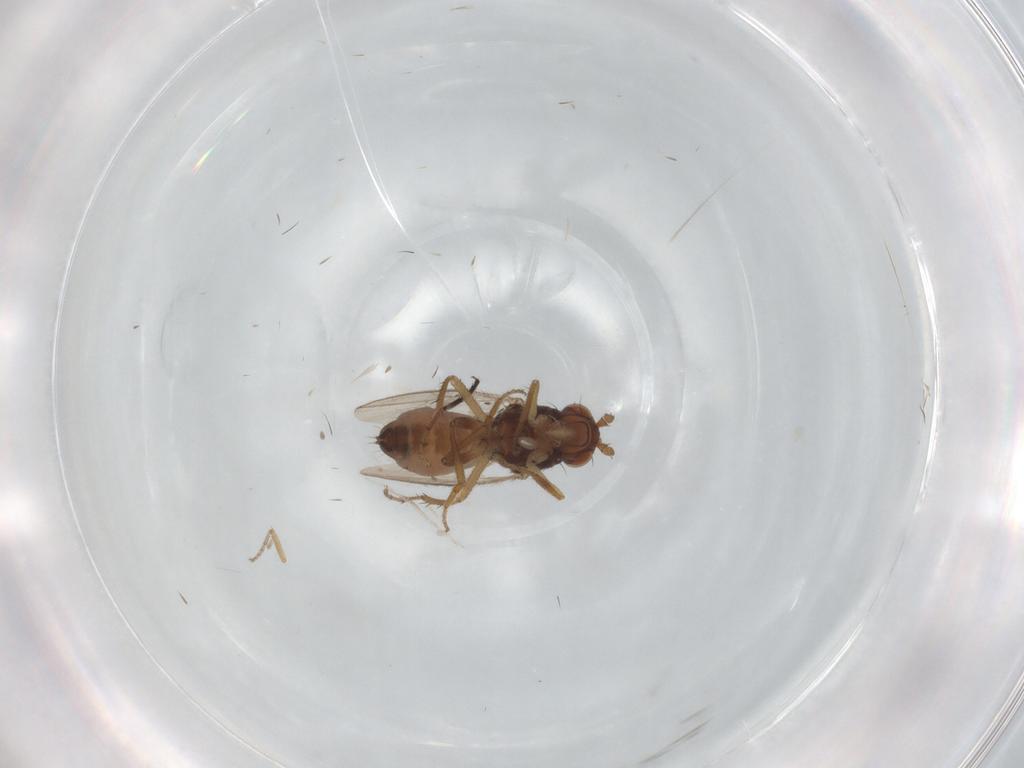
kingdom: Animalia
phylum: Arthropoda
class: Insecta
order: Diptera
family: Ceratopogonidae
